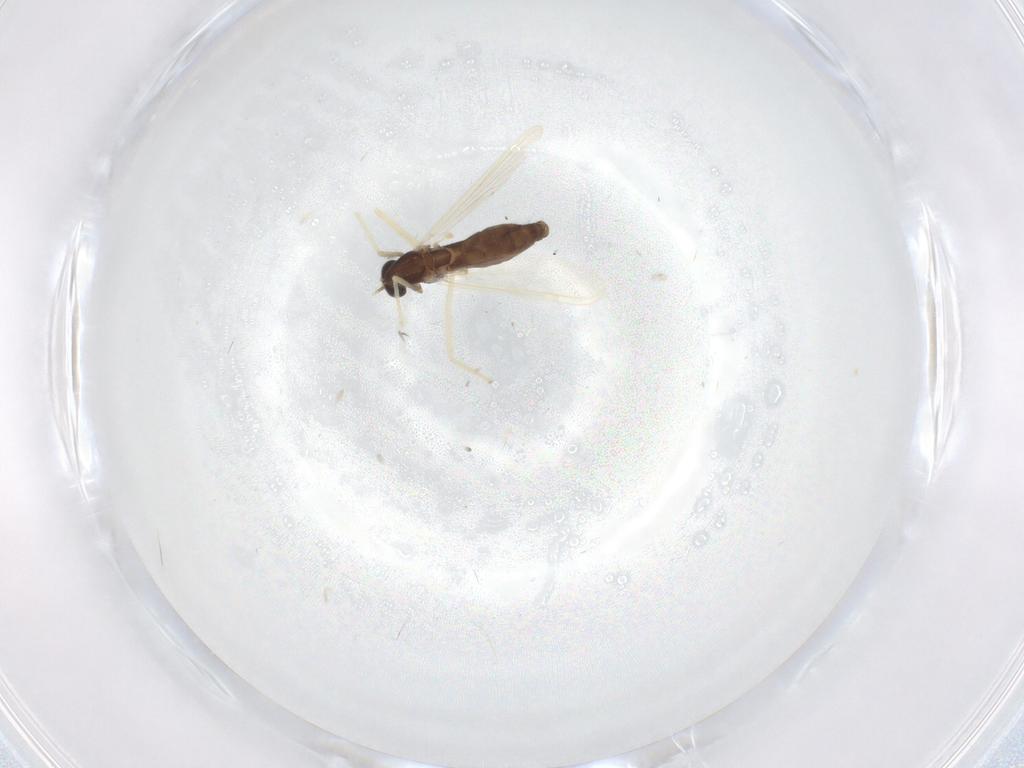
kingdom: Animalia
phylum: Arthropoda
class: Insecta
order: Diptera
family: Chironomidae
